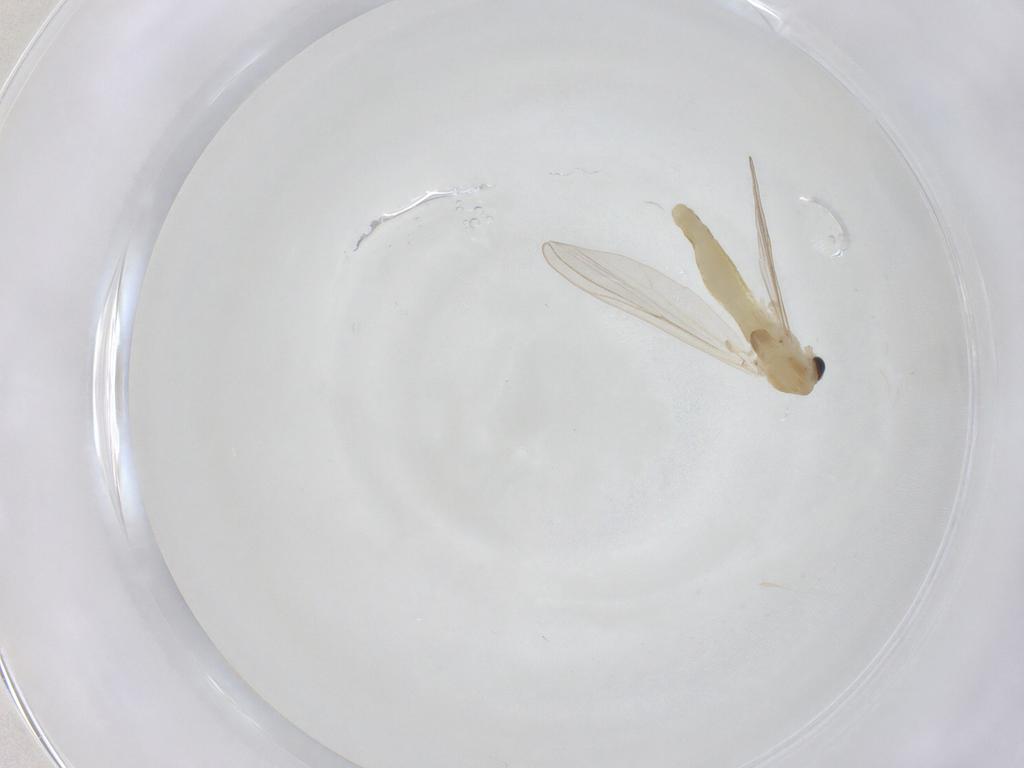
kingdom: Animalia
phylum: Arthropoda
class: Insecta
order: Diptera
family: Chironomidae
